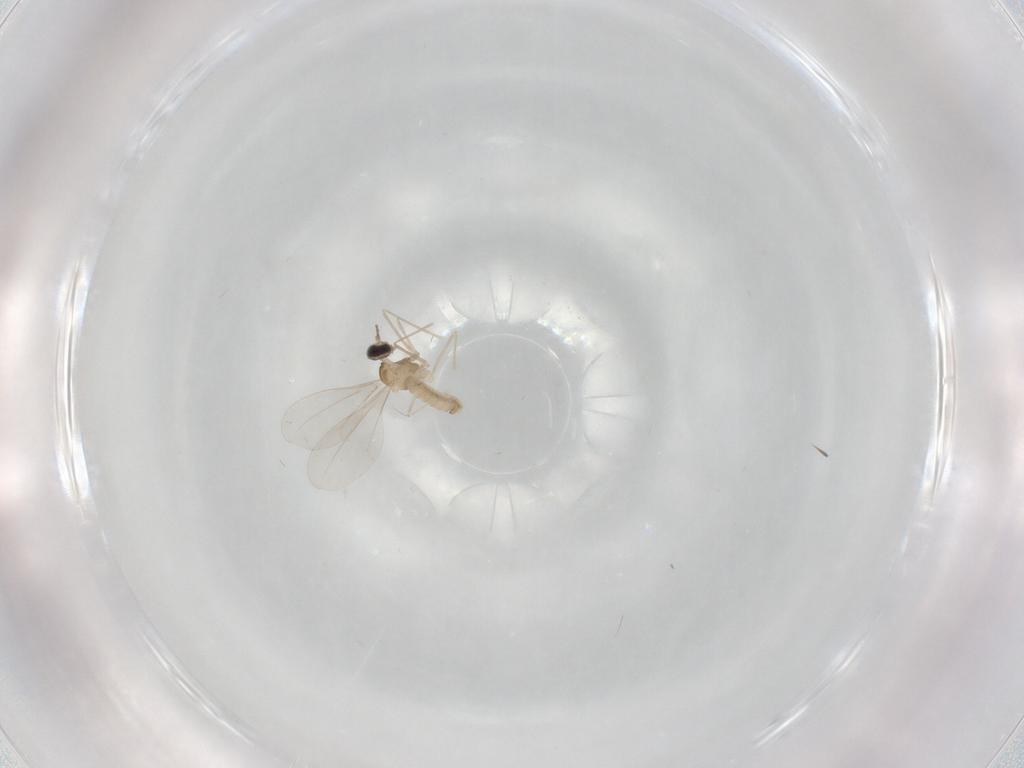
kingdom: Animalia
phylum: Arthropoda
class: Insecta
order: Diptera
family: Cecidomyiidae
